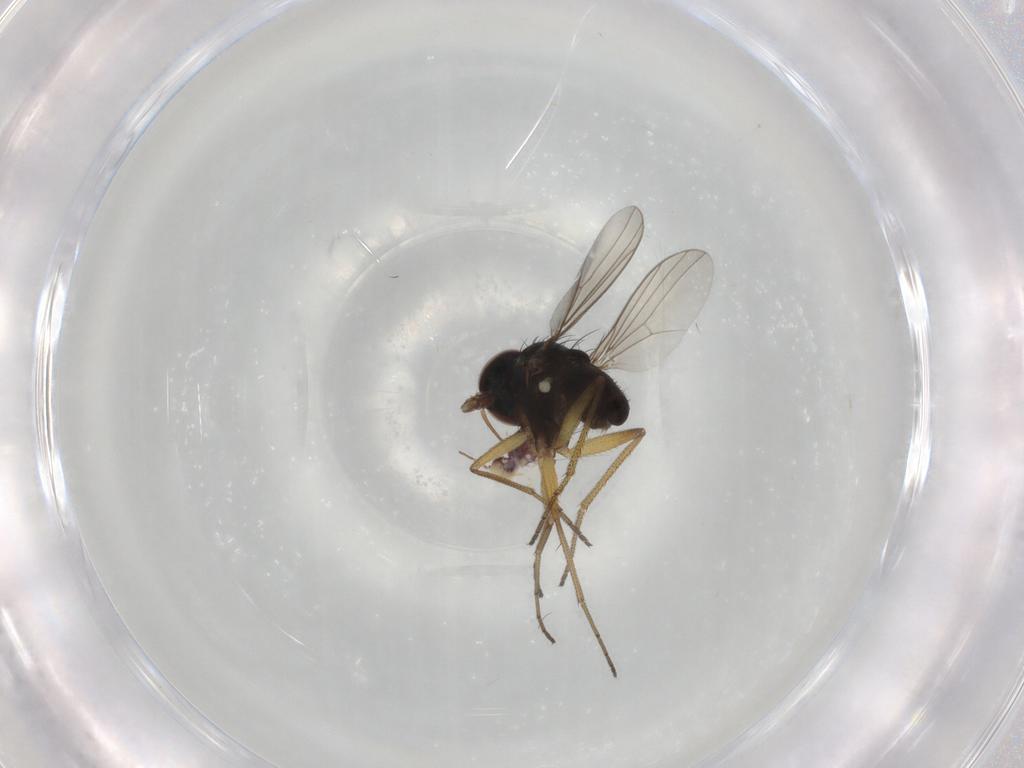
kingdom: Animalia
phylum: Arthropoda
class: Insecta
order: Diptera
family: Dolichopodidae
